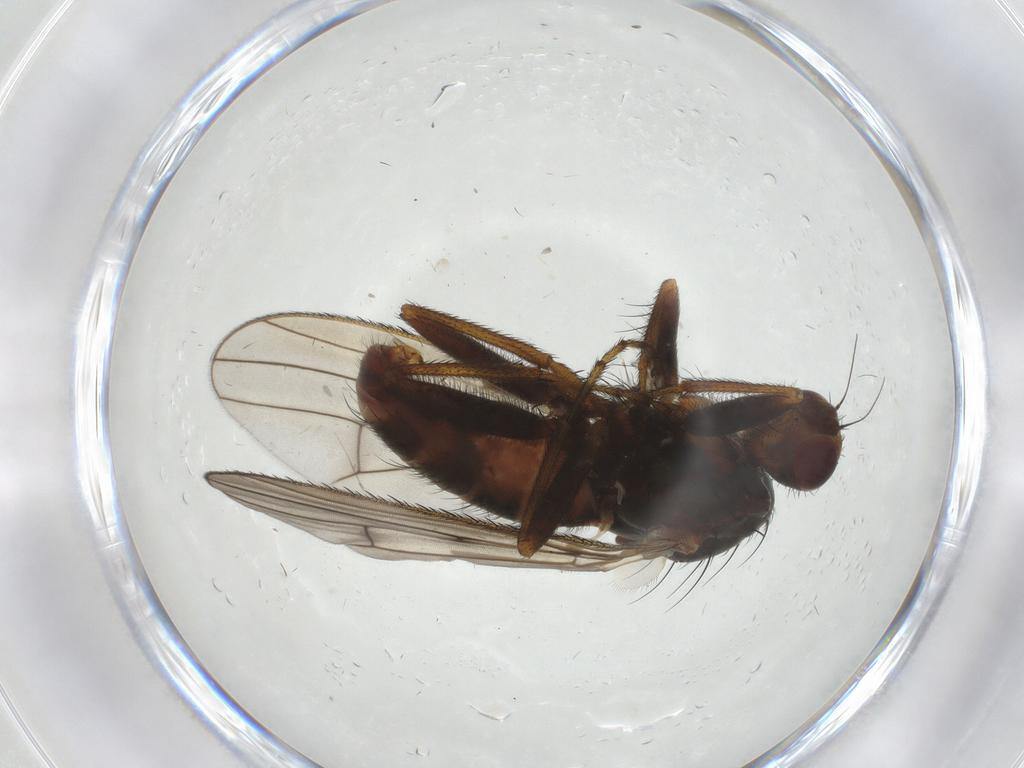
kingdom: Animalia
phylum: Arthropoda
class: Insecta
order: Diptera
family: Heleomyzidae
